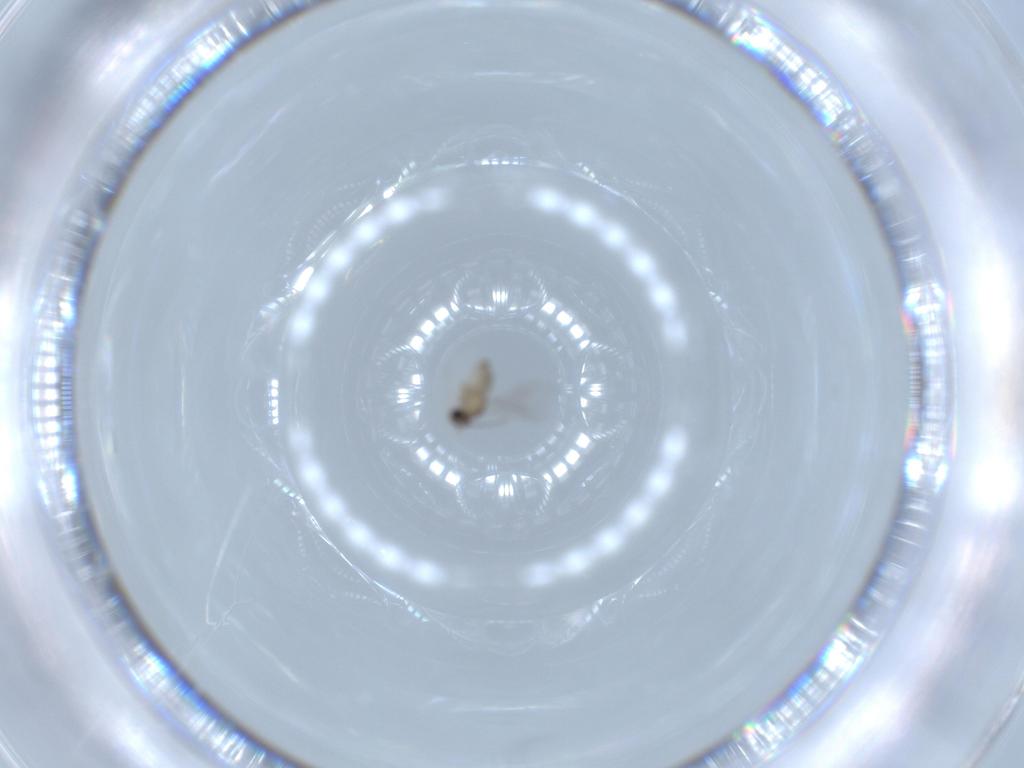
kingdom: Animalia
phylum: Arthropoda
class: Insecta
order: Diptera
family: Cecidomyiidae
